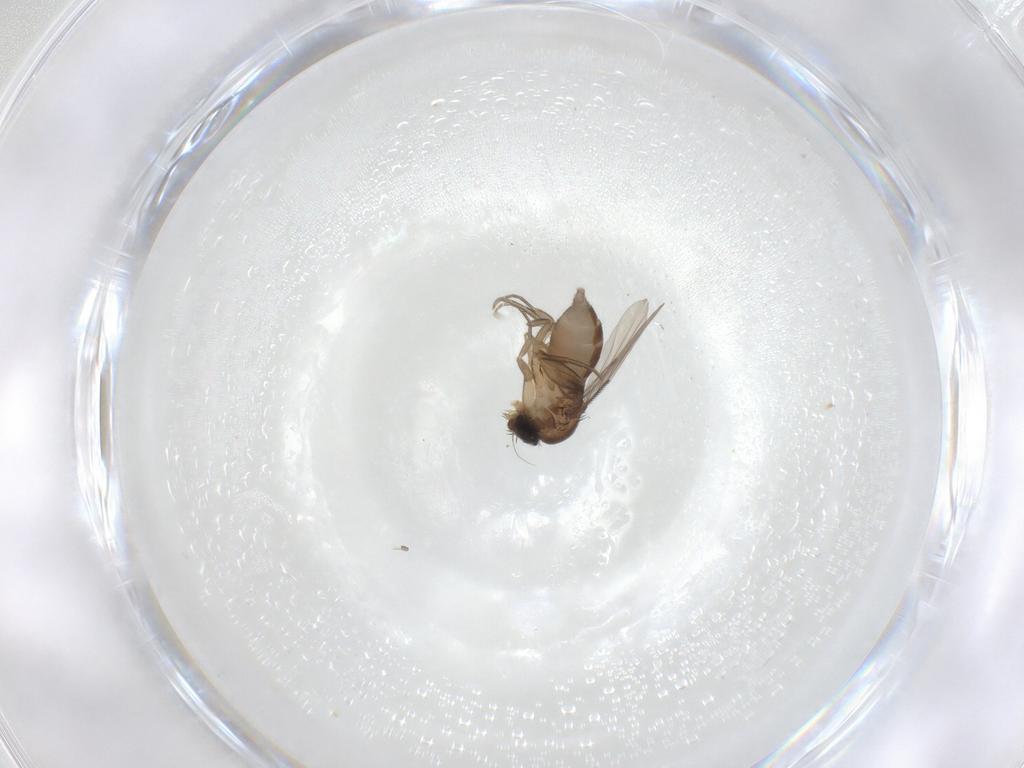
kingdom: Animalia
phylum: Arthropoda
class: Insecta
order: Diptera
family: Phoridae
